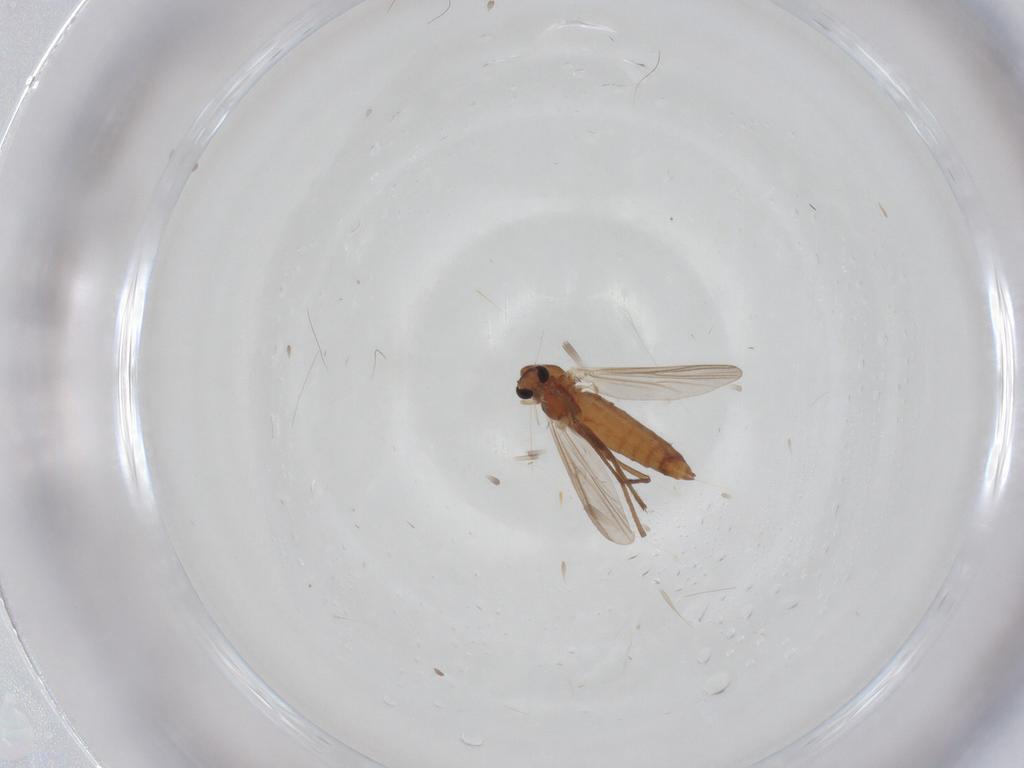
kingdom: Animalia
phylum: Arthropoda
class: Insecta
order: Diptera
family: Chironomidae
